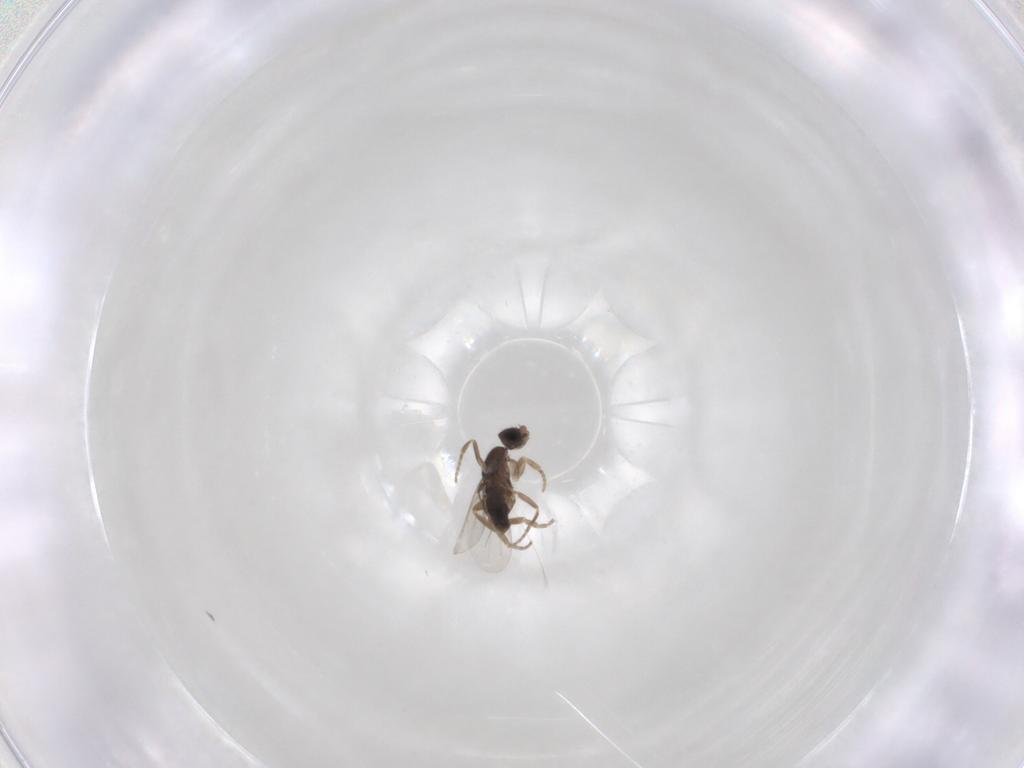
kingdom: Animalia
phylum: Arthropoda
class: Insecta
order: Diptera
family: Phoridae
